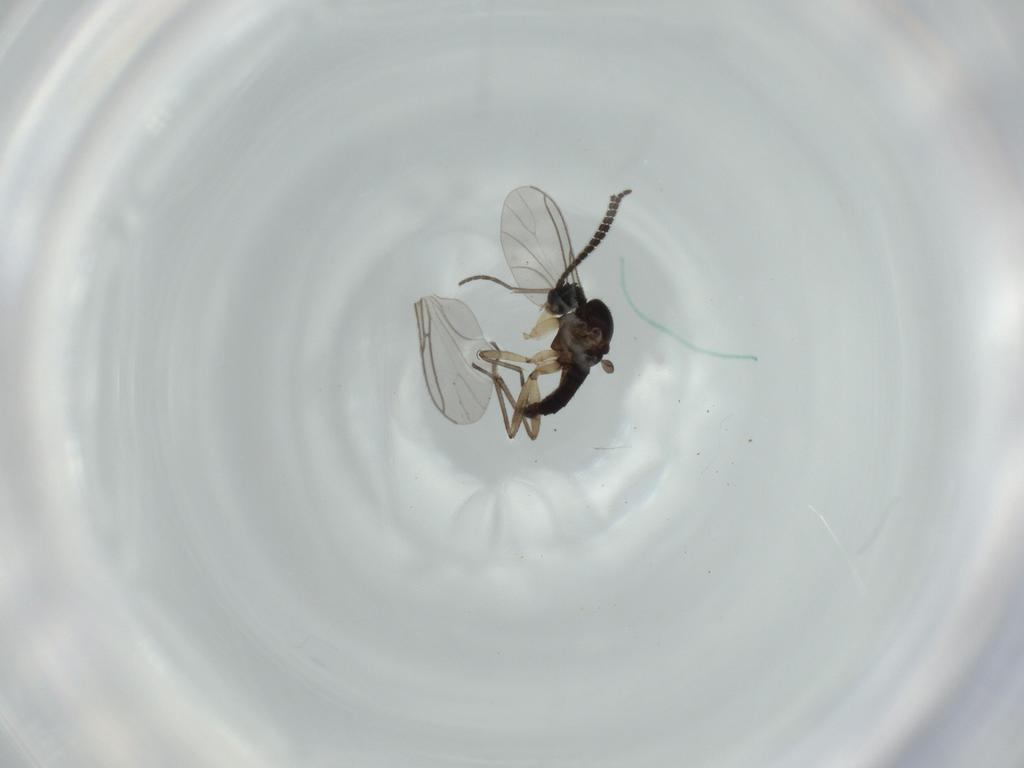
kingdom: Animalia
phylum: Arthropoda
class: Insecta
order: Diptera
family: Sciaridae
